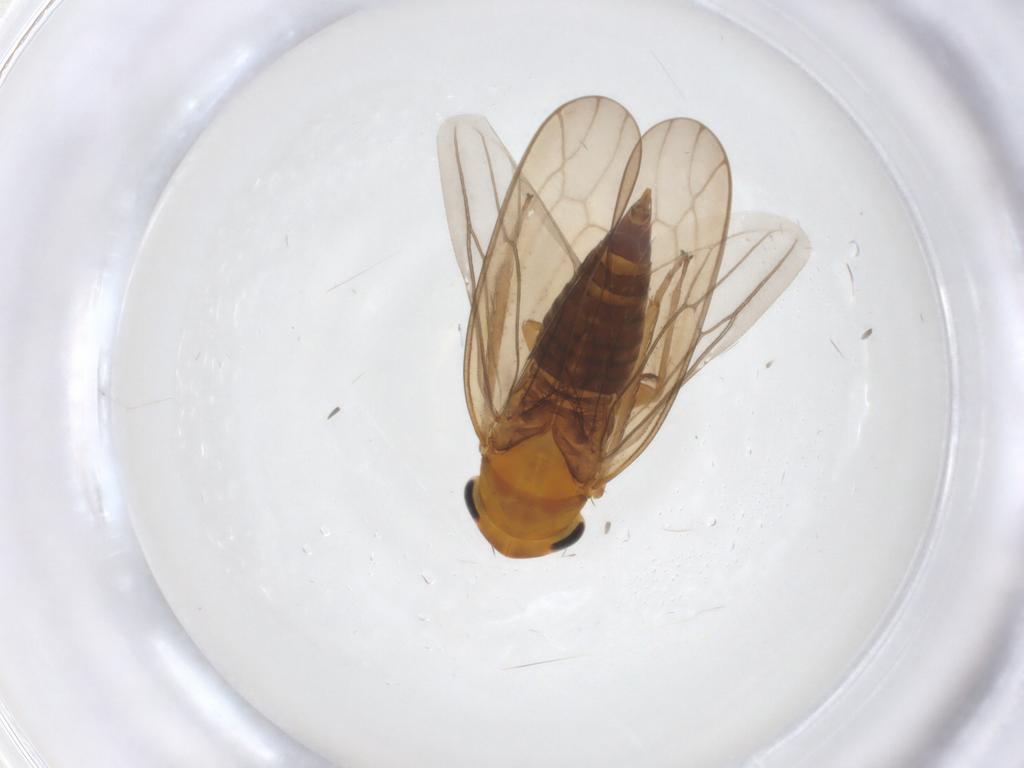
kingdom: Animalia
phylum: Arthropoda
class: Insecta
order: Hemiptera
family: Cicadellidae
